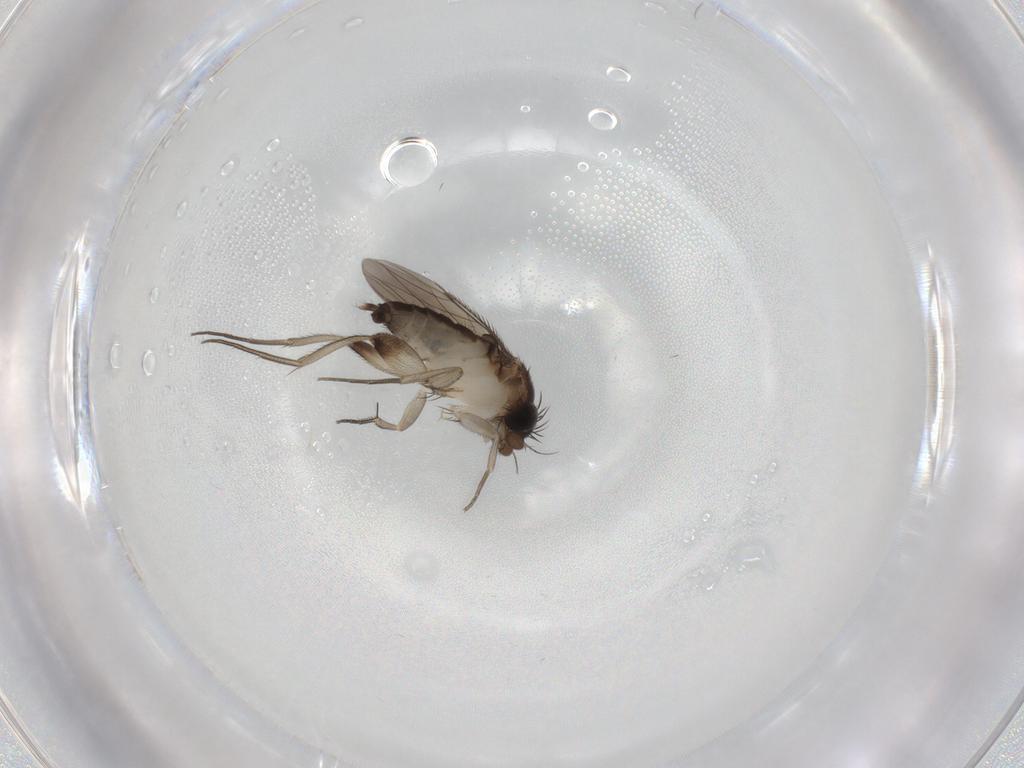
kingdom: Animalia
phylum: Arthropoda
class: Insecta
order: Diptera
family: Phoridae
